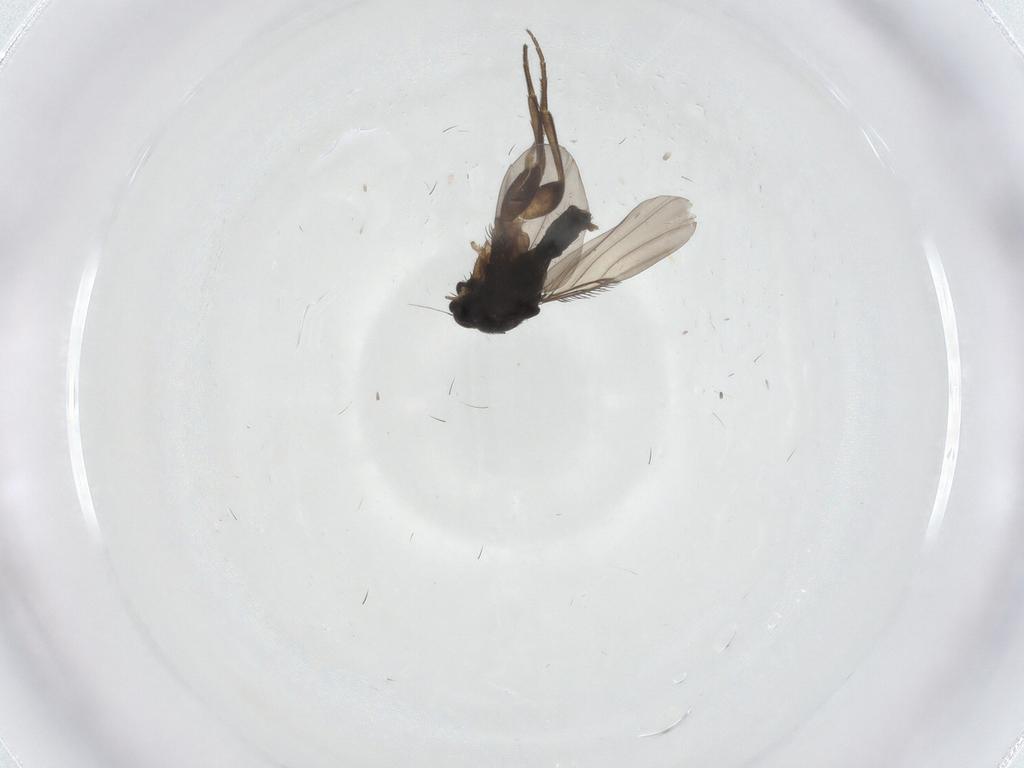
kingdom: Animalia
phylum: Arthropoda
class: Insecta
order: Diptera
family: Phoridae
